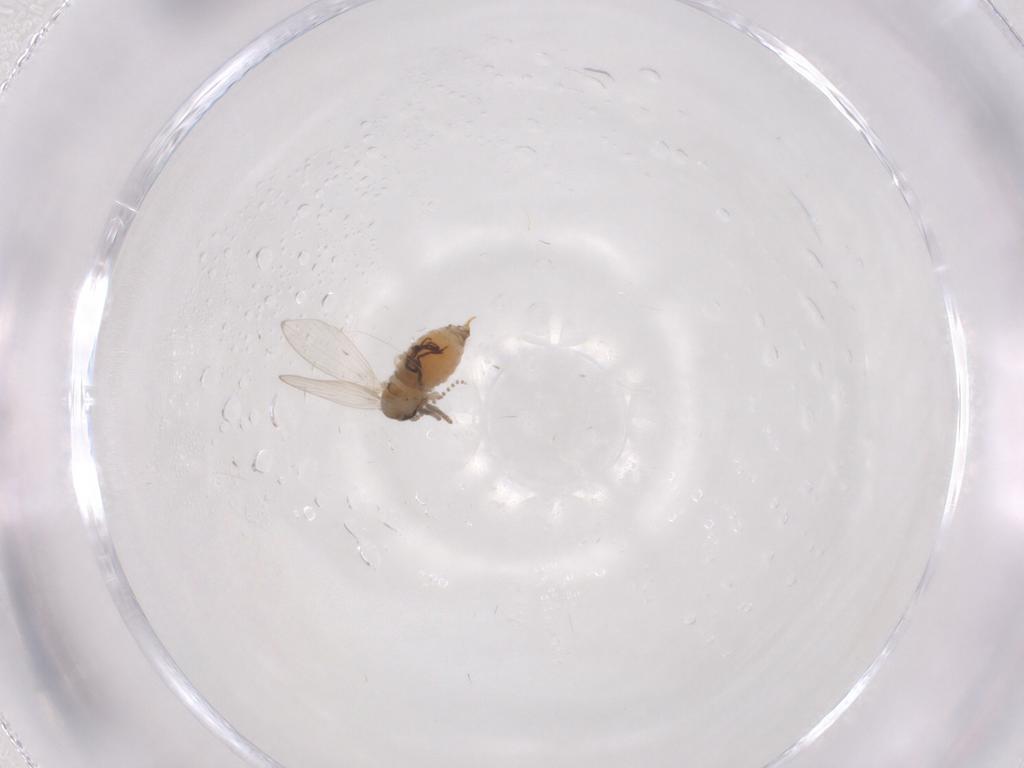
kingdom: Animalia
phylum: Arthropoda
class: Insecta
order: Diptera
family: Psychodidae
